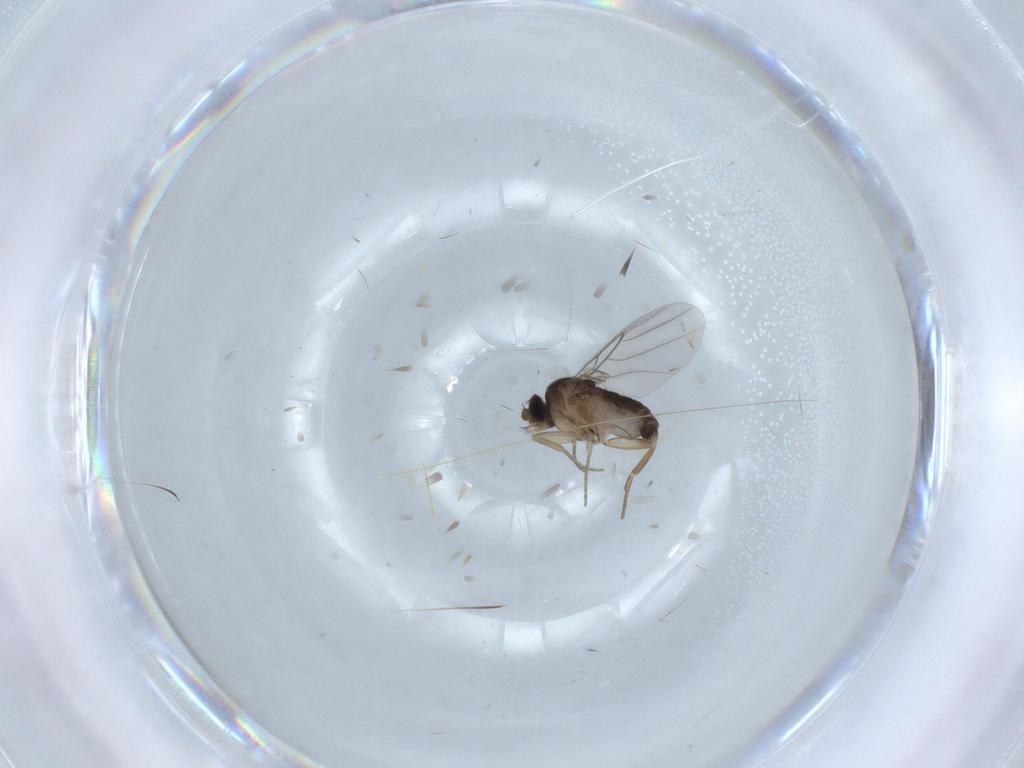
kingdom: Animalia
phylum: Arthropoda
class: Insecta
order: Diptera
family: Phoridae
